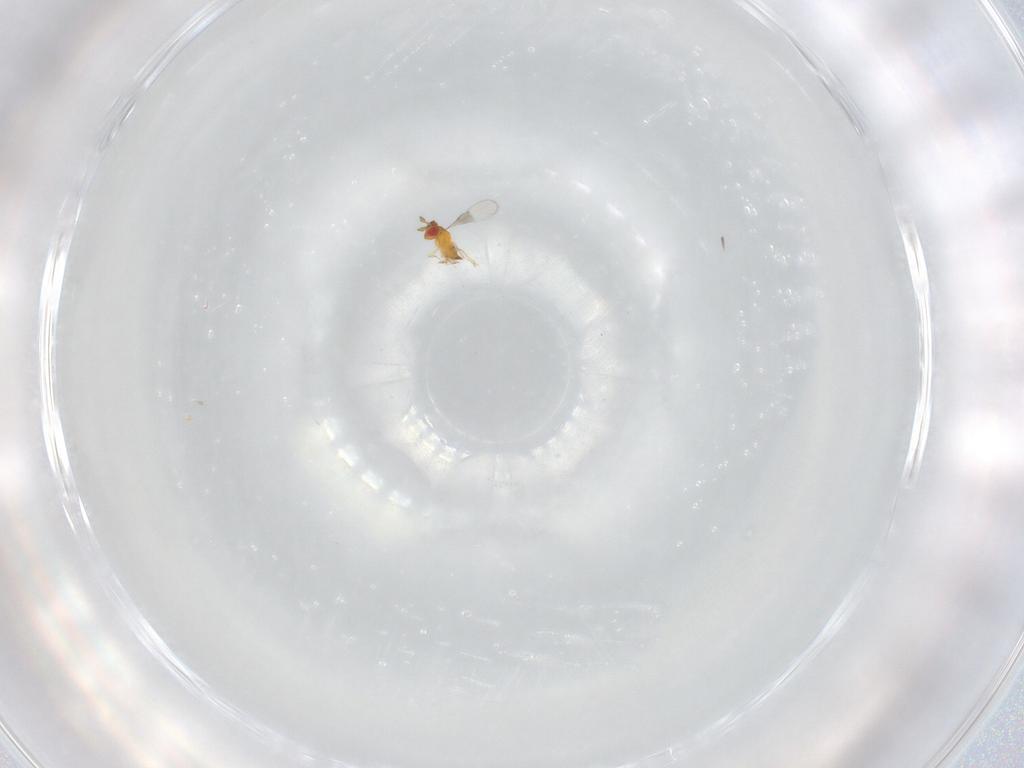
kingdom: Animalia
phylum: Arthropoda
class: Insecta
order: Hymenoptera
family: Trichogrammatidae
